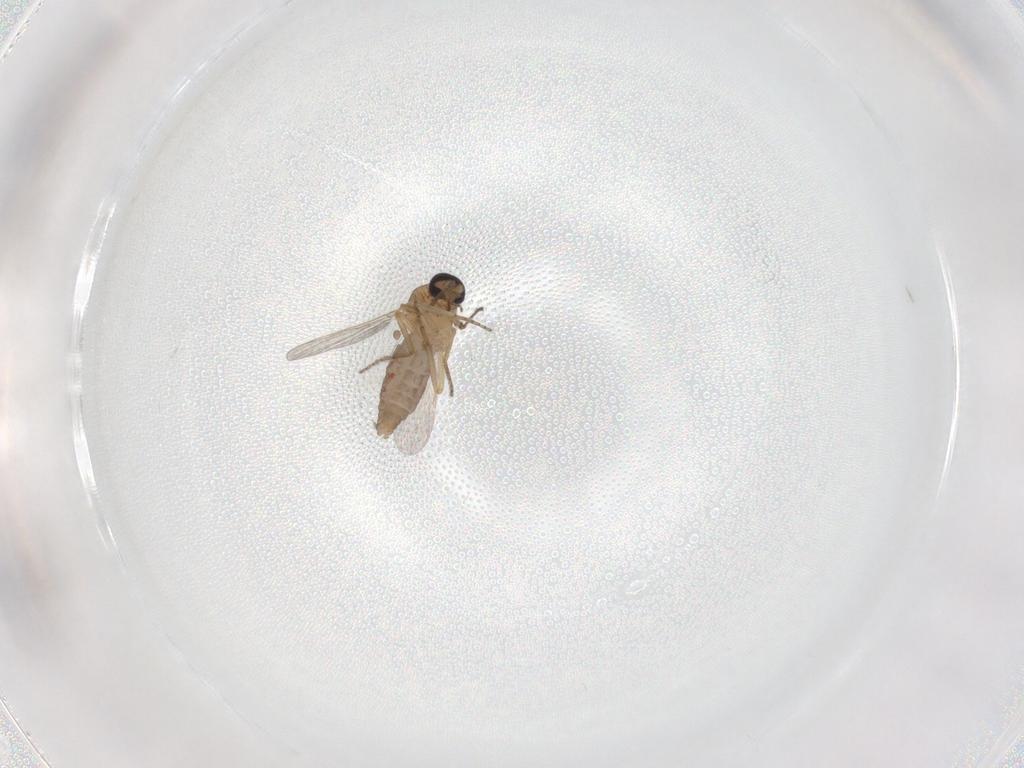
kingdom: Animalia
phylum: Arthropoda
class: Insecta
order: Diptera
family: Ceratopogonidae
